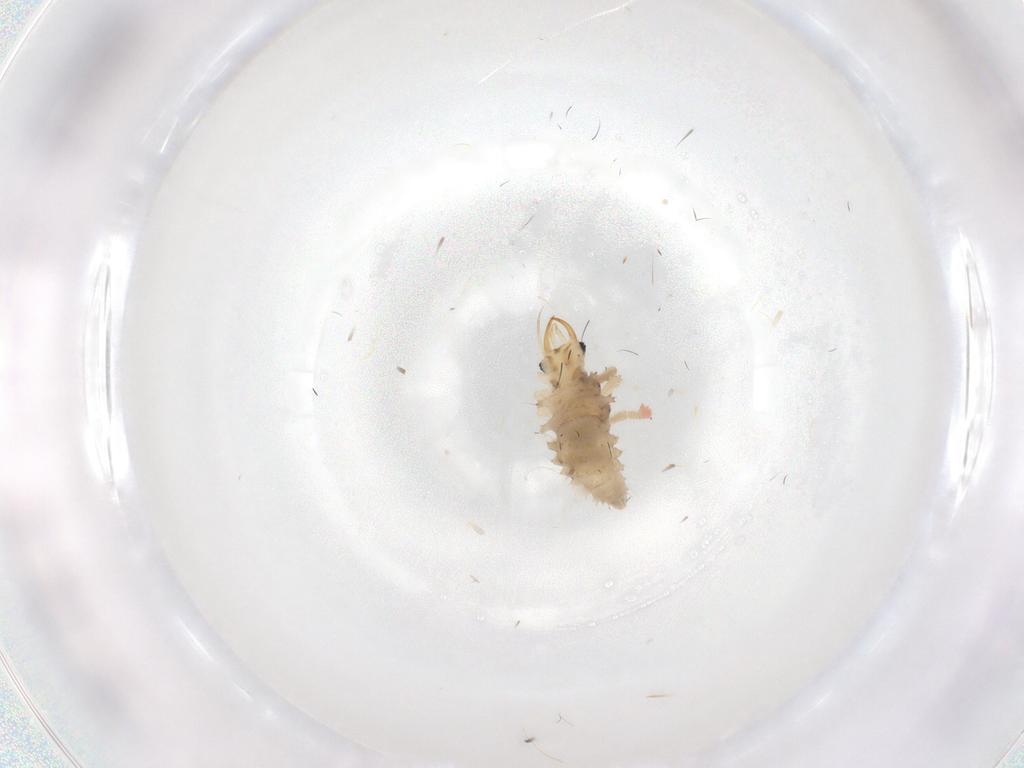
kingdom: Animalia
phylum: Arthropoda
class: Insecta
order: Neuroptera
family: Chrysopidae
